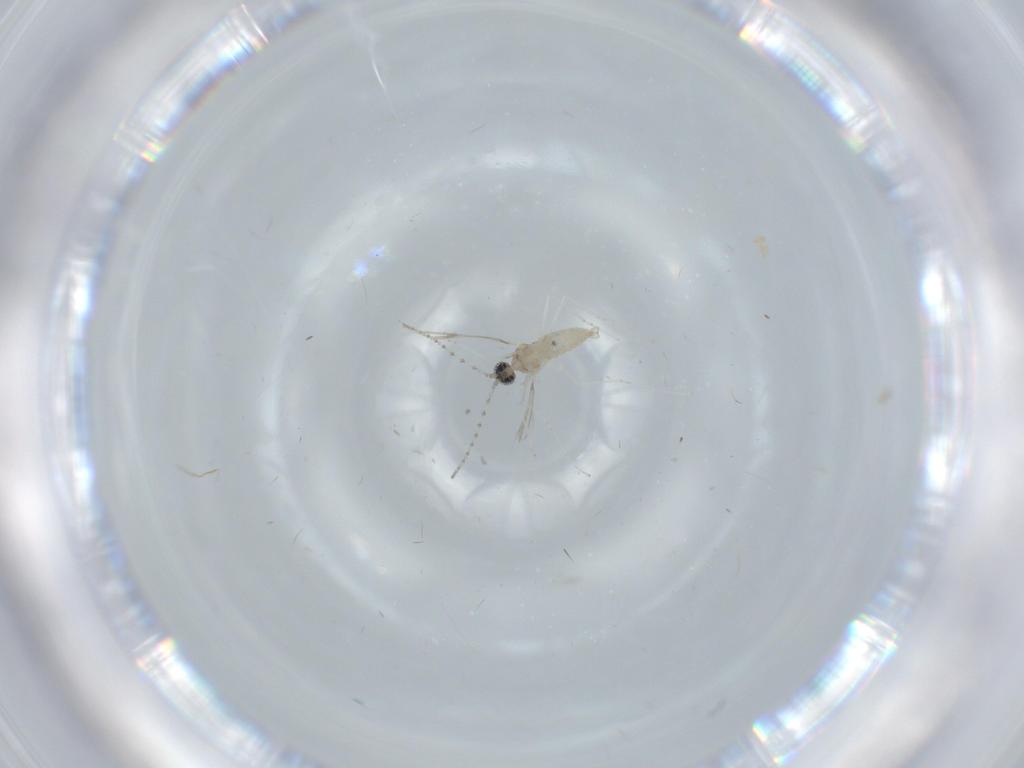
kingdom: Animalia
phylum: Arthropoda
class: Insecta
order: Diptera
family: Cecidomyiidae
